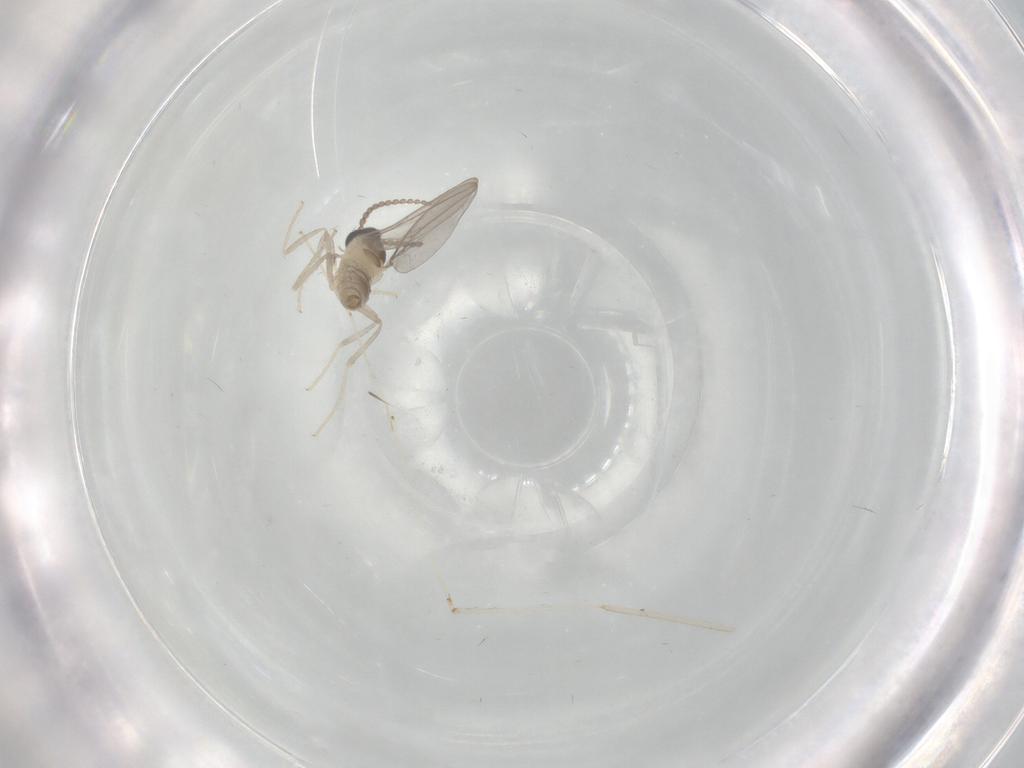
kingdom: Animalia
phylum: Arthropoda
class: Insecta
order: Diptera
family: Cecidomyiidae
